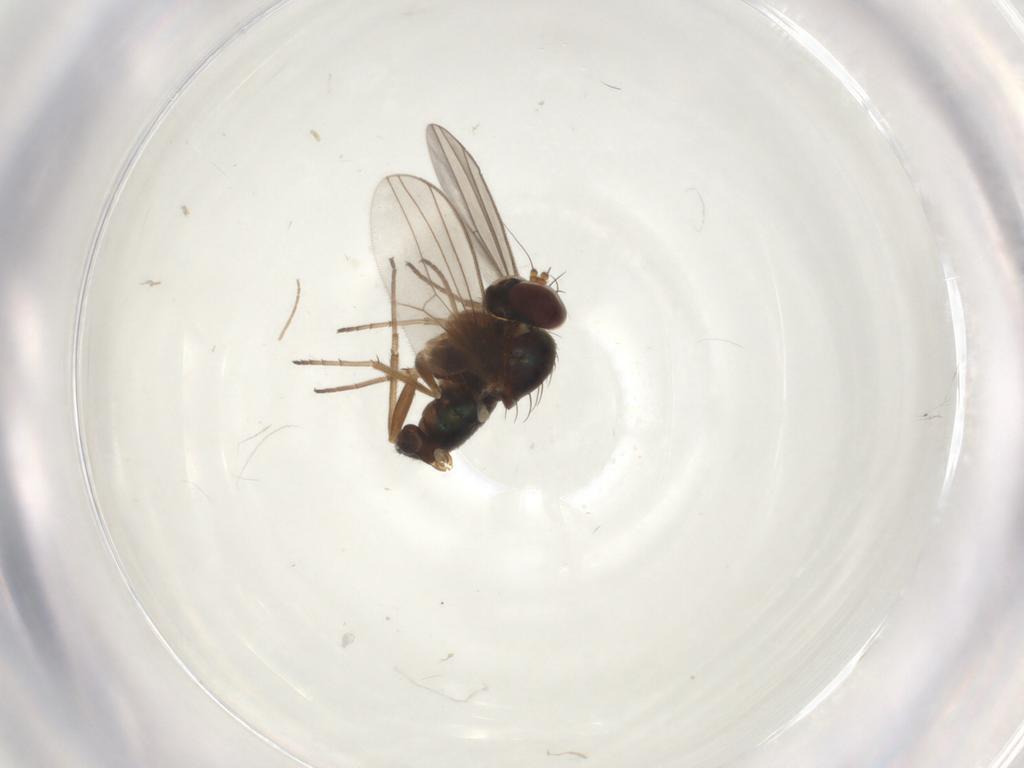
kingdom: Animalia
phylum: Arthropoda
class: Insecta
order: Diptera
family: Dolichopodidae
